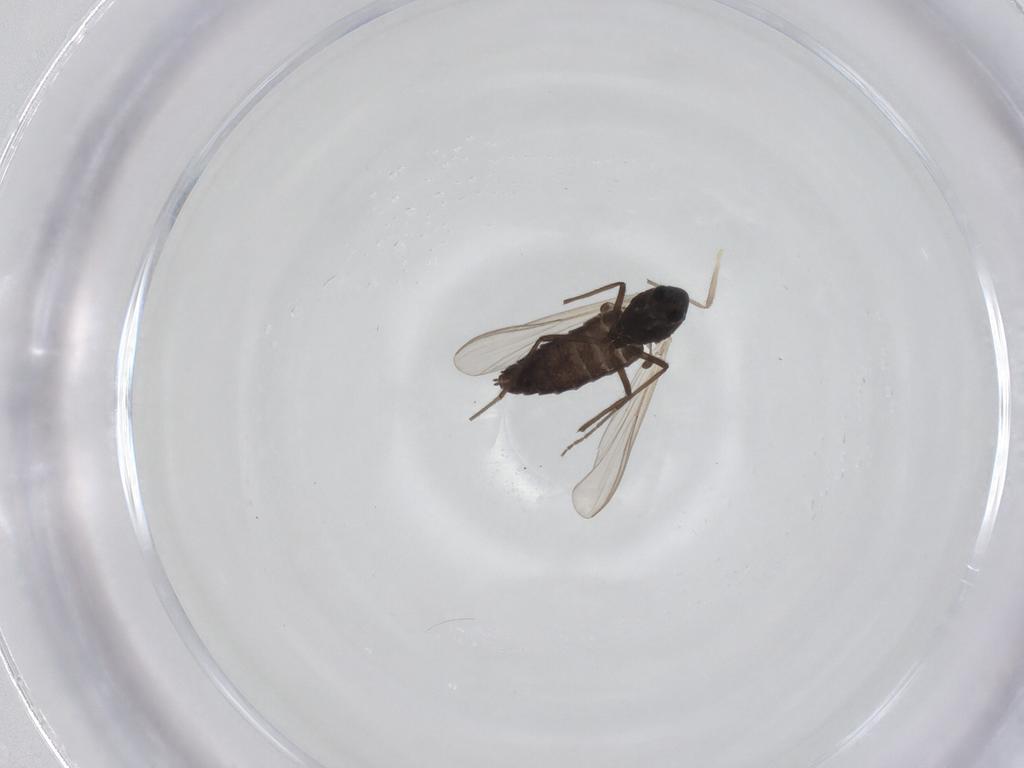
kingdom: Animalia
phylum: Arthropoda
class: Insecta
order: Diptera
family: Chironomidae
